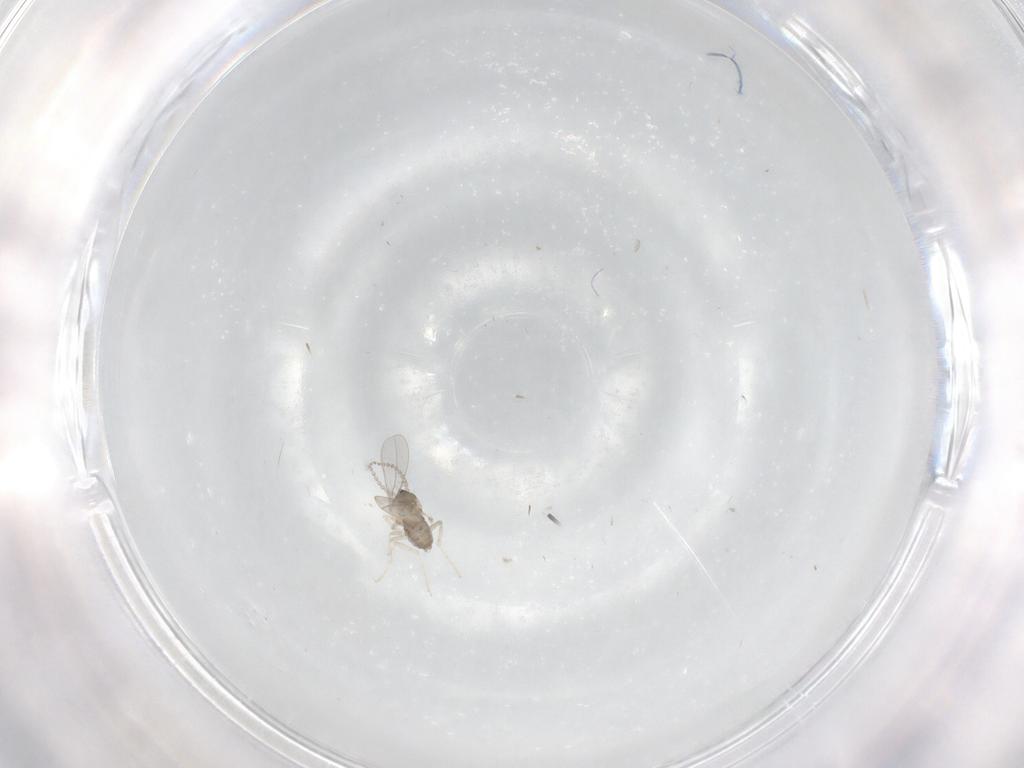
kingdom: Animalia
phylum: Arthropoda
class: Insecta
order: Diptera
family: Cecidomyiidae
